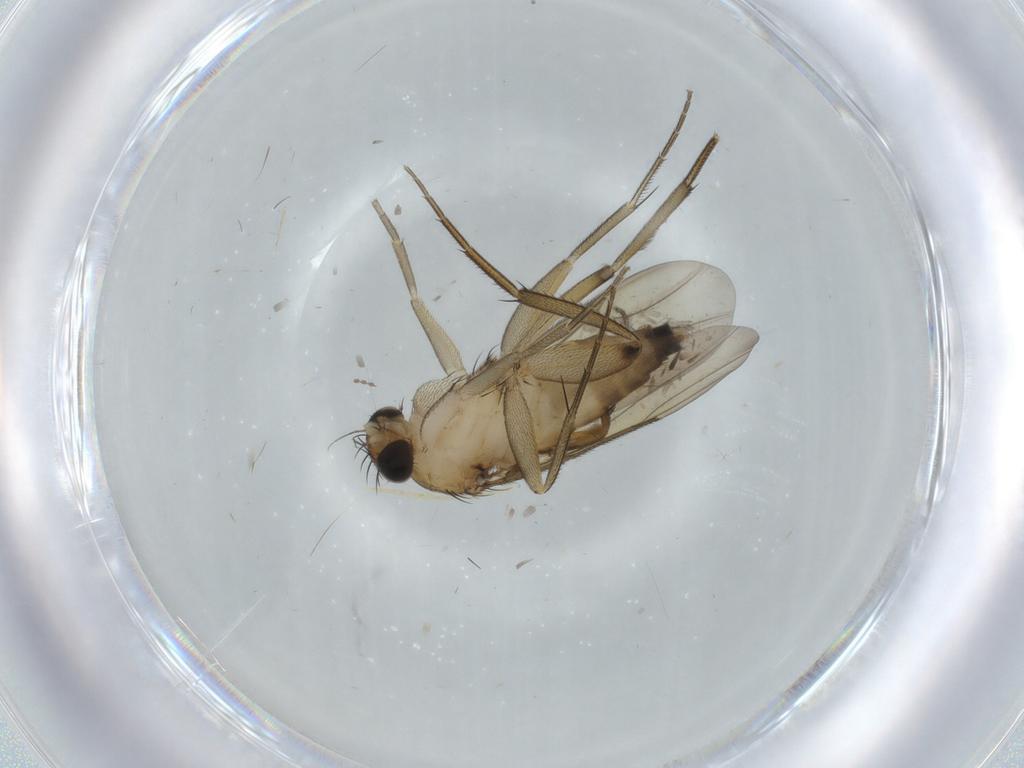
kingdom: Animalia
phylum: Arthropoda
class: Insecta
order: Diptera
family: Phoridae
